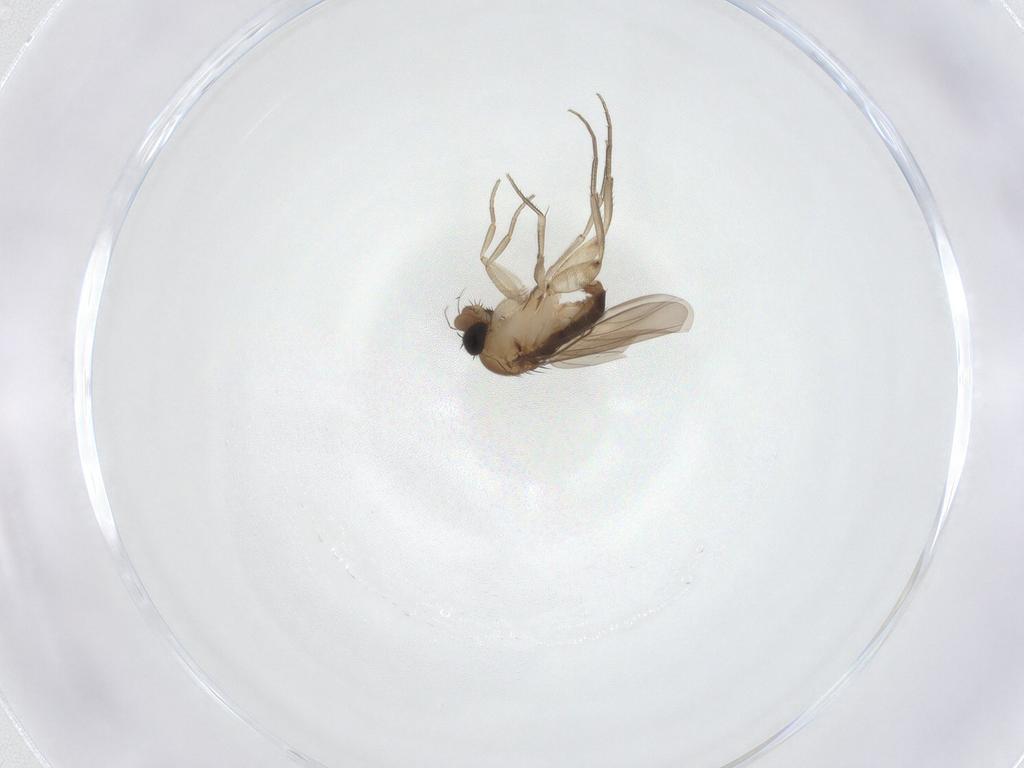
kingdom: Animalia
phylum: Arthropoda
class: Insecta
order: Diptera
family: Phoridae
